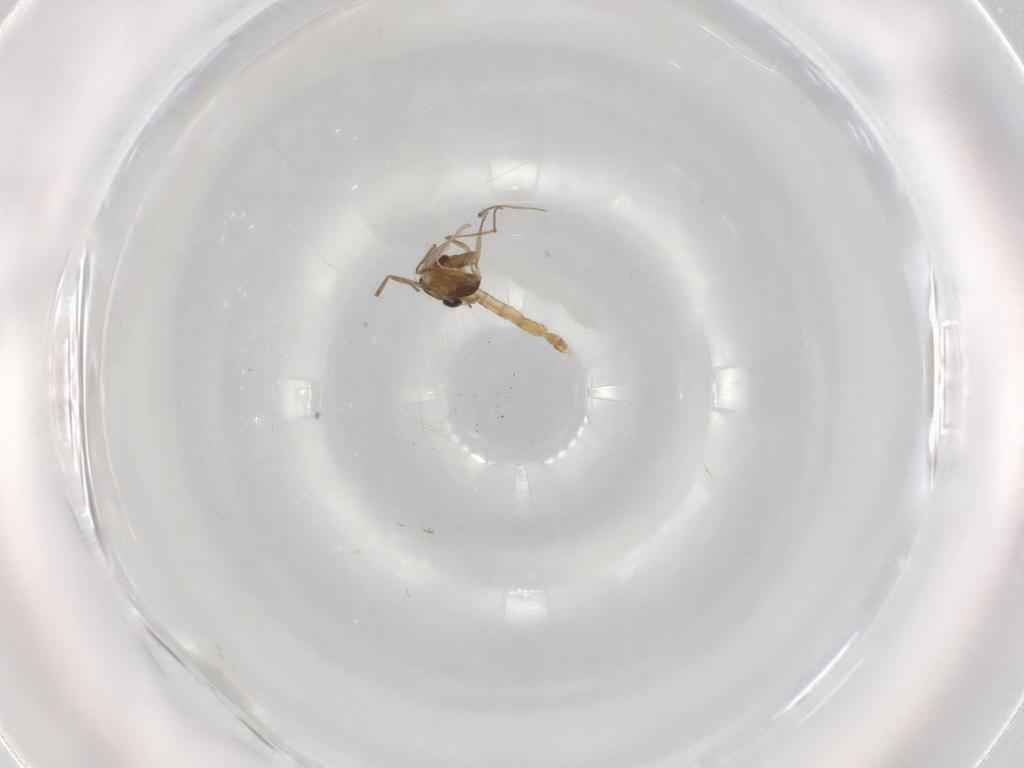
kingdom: Animalia
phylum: Arthropoda
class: Insecta
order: Diptera
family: Chironomidae
